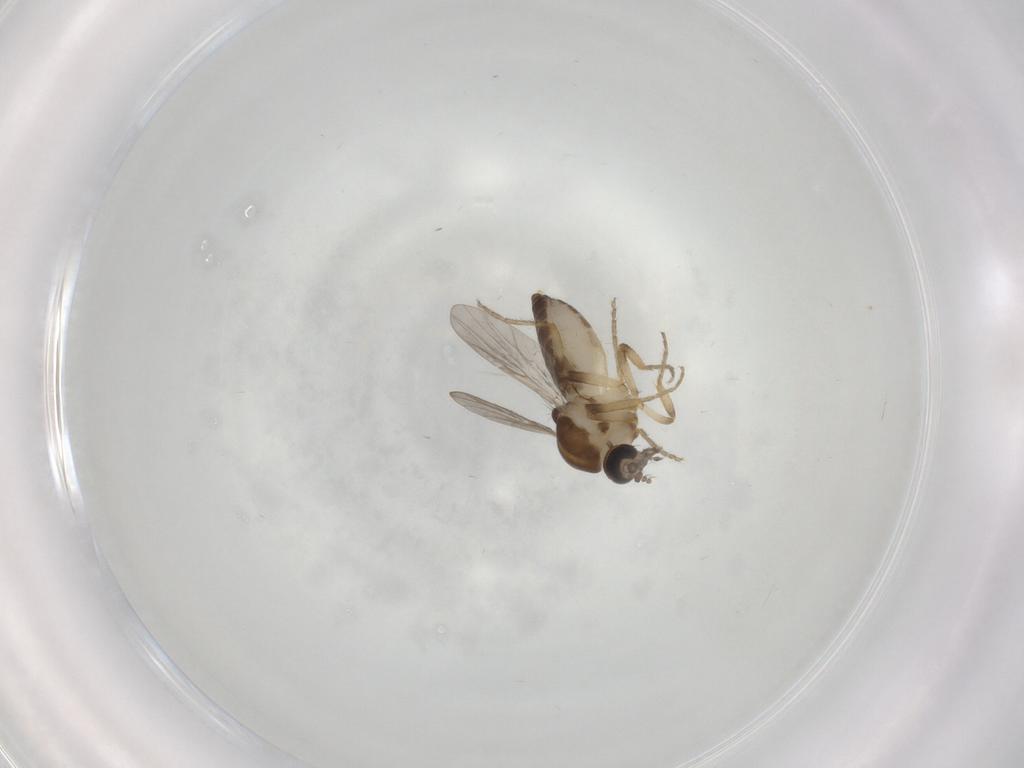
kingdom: Animalia
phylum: Arthropoda
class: Insecta
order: Diptera
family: Ceratopogonidae
